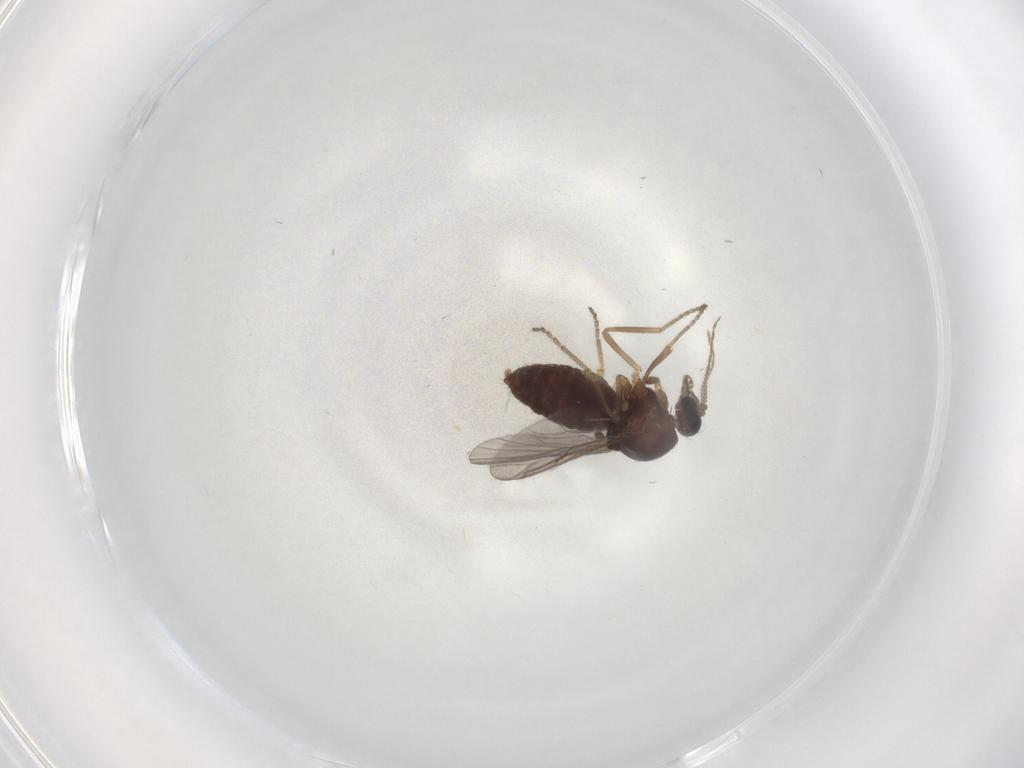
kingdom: Animalia
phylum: Arthropoda
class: Insecta
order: Diptera
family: Ceratopogonidae
